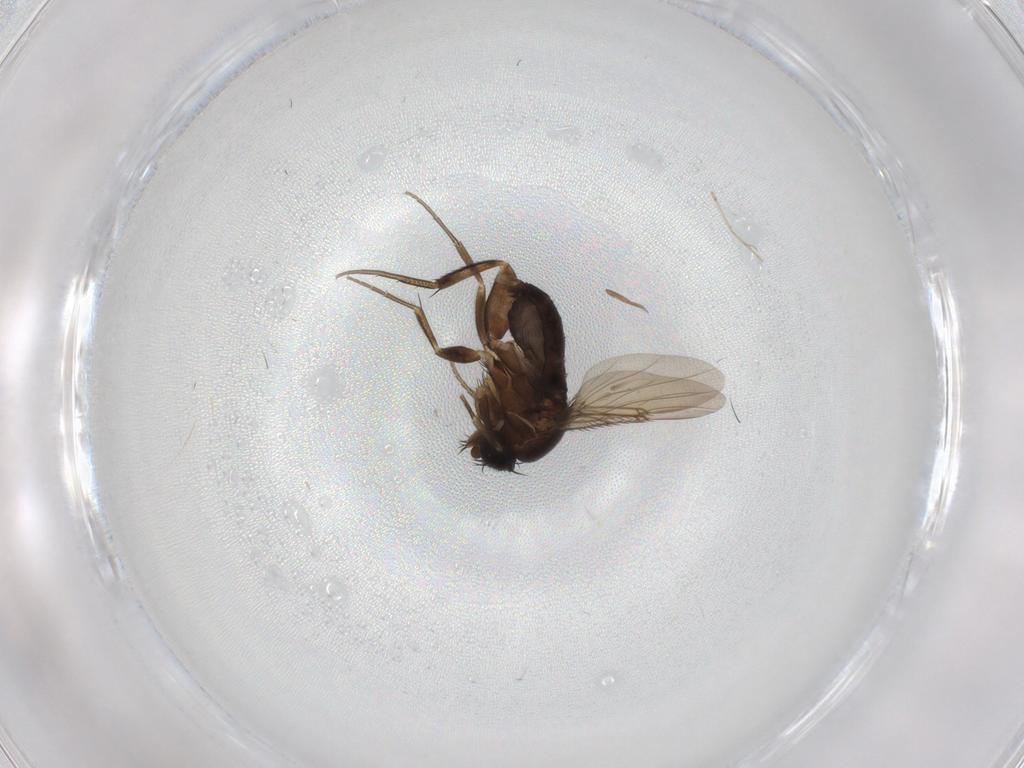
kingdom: Animalia
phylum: Arthropoda
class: Insecta
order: Diptera
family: Phoridae
